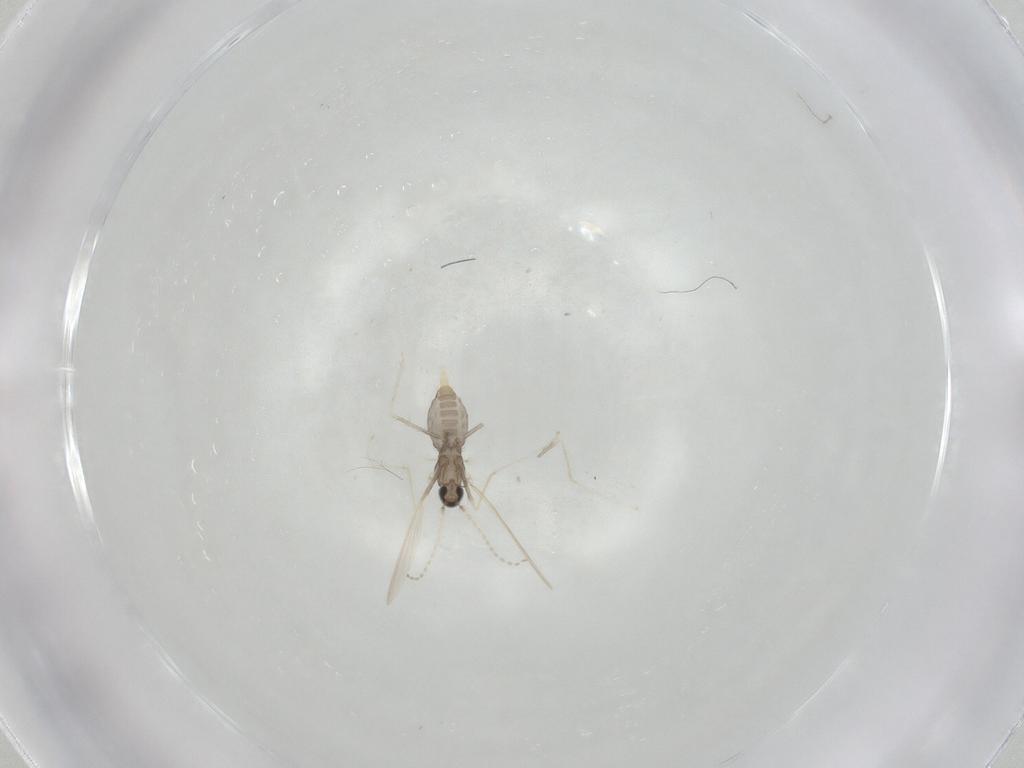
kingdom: Animalia
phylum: Arthropoda
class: Insecta
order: Diptera
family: Cecidomyiidae
